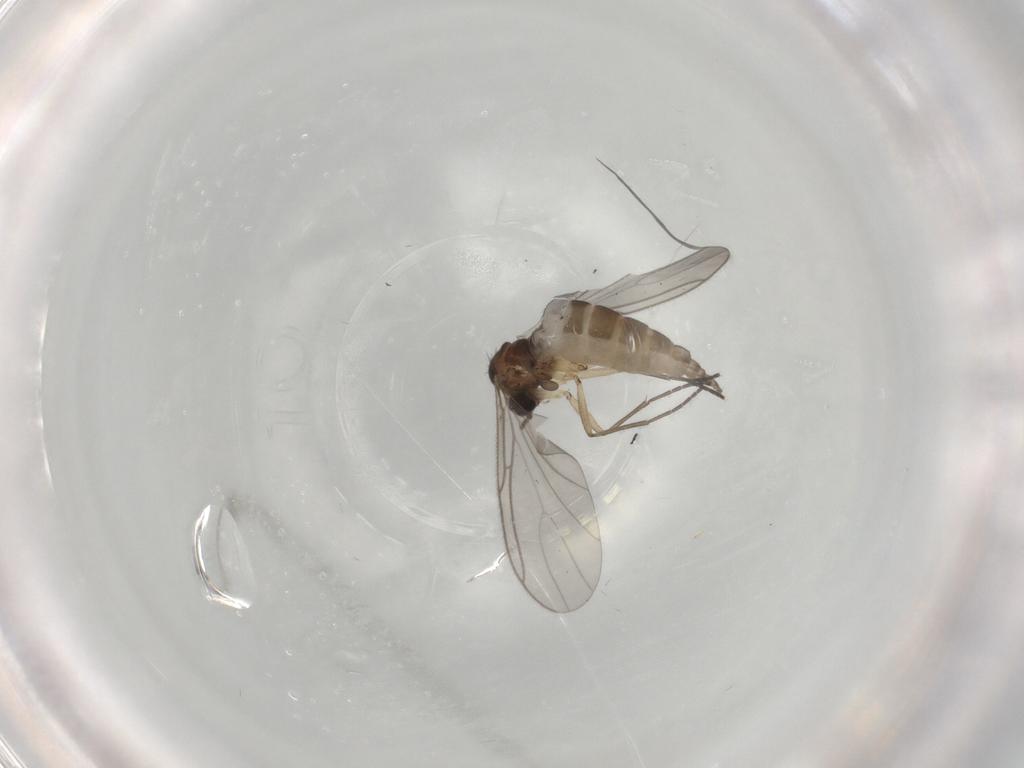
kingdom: Animalia
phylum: Arthropoda
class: Insecta
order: Diptera
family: Sciaridae
